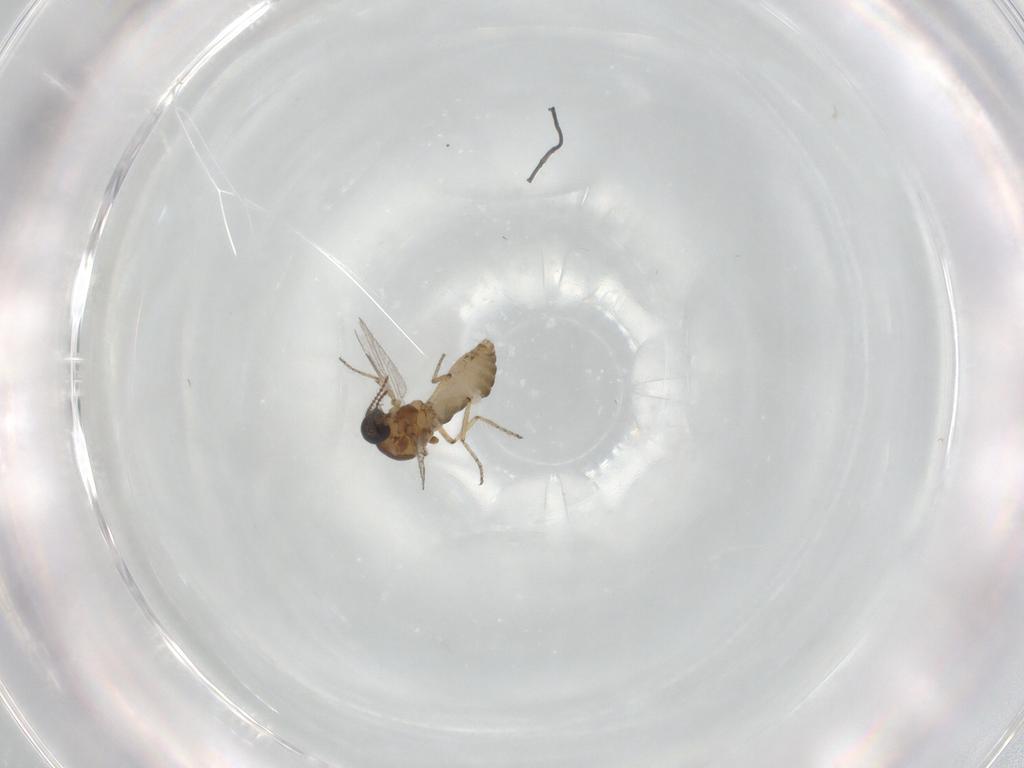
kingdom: Animalia
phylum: Arthropoda
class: Insecta
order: Diptera
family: Ceratopogonidae
